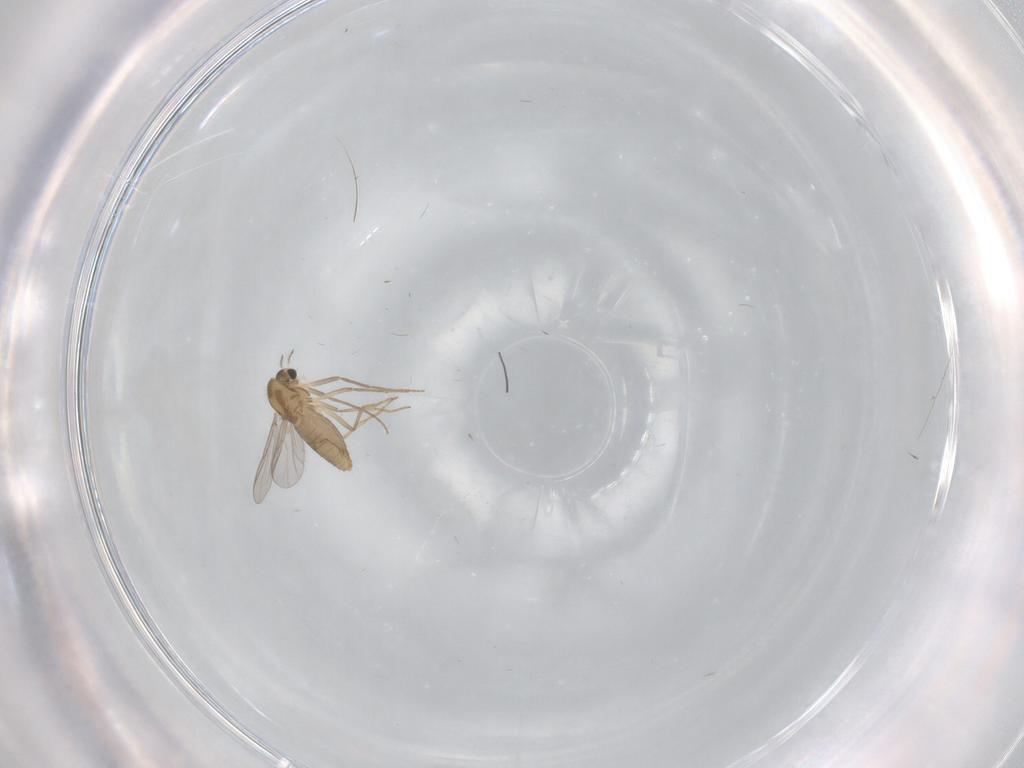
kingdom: Animalia
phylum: Arthropoda
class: Insecta
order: Diptera
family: Chironomidae
